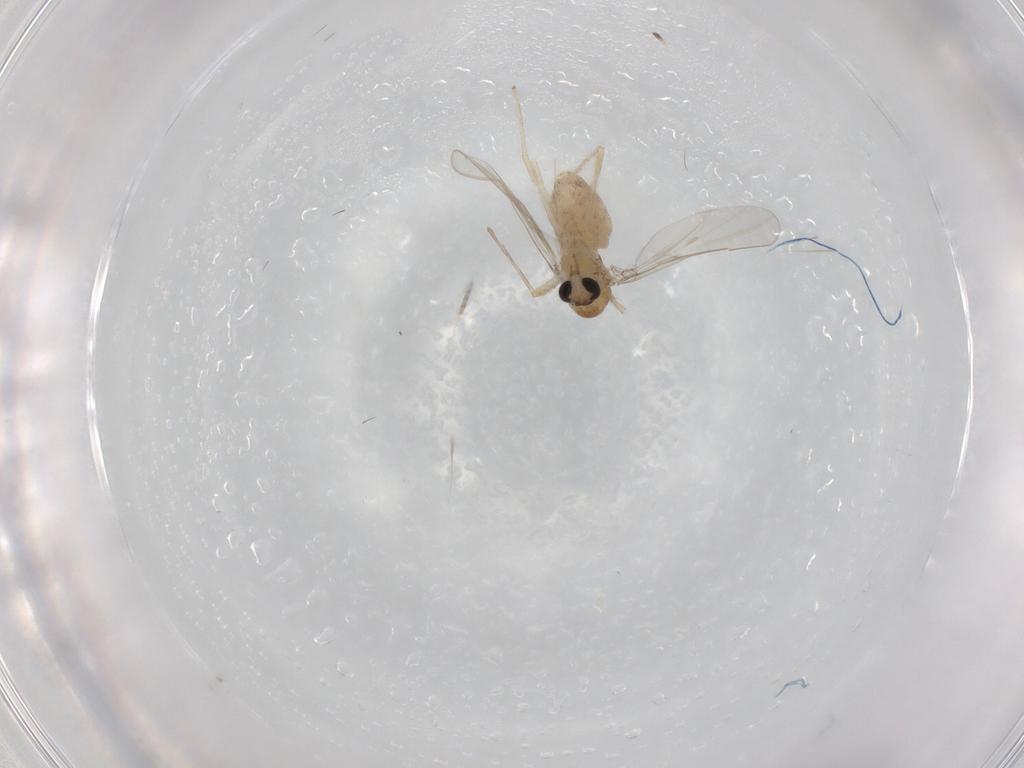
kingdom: Animalia
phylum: Arthropoda
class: Insecta
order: Diptera
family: Chironomidae
